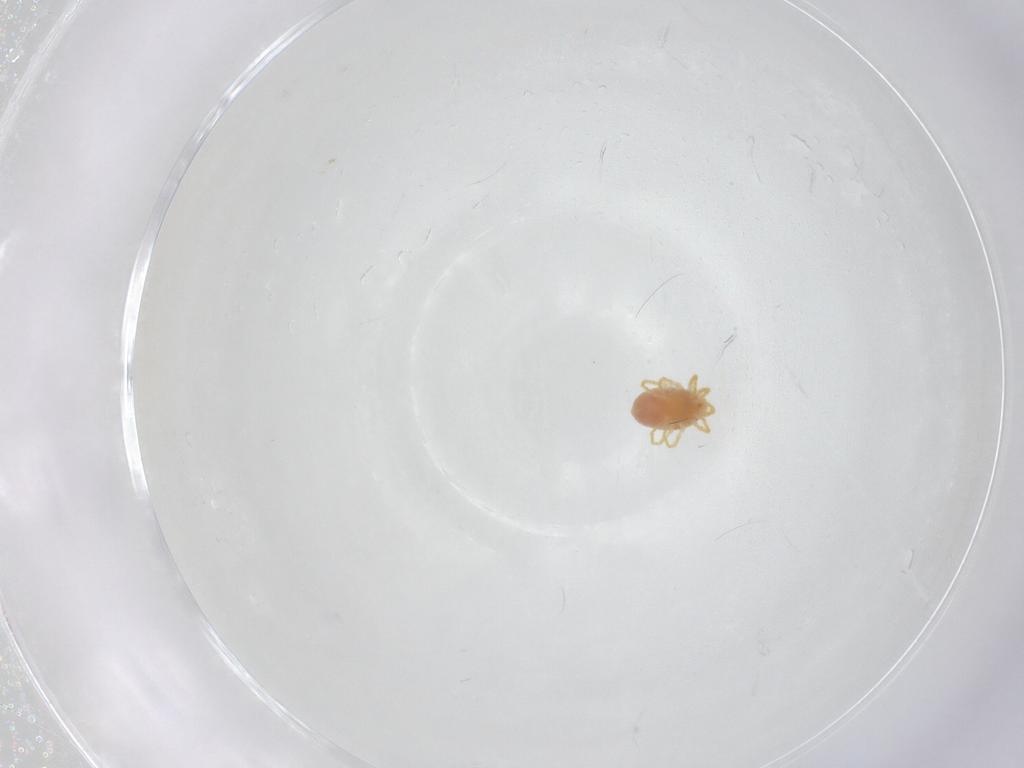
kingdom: Animalia
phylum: Arthropoda
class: Arachnida
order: Trombidiformes
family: Sphaerolichidae
